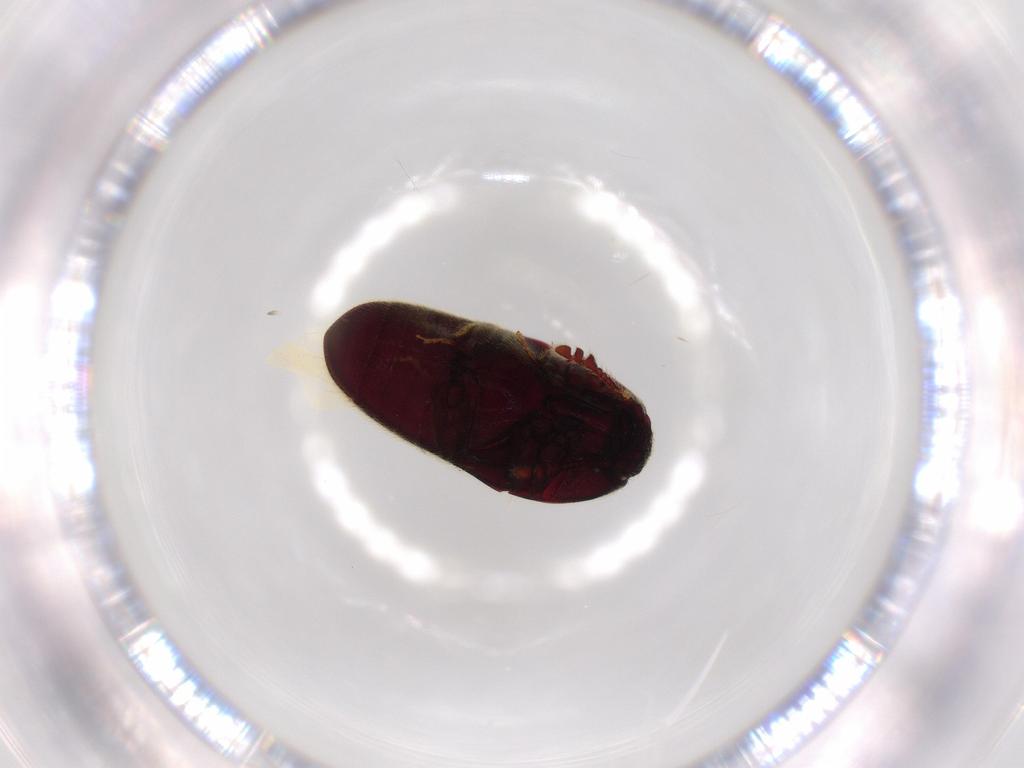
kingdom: Animalia
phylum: Arthropoda
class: Insecta
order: Coleoptera
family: Throscidae
